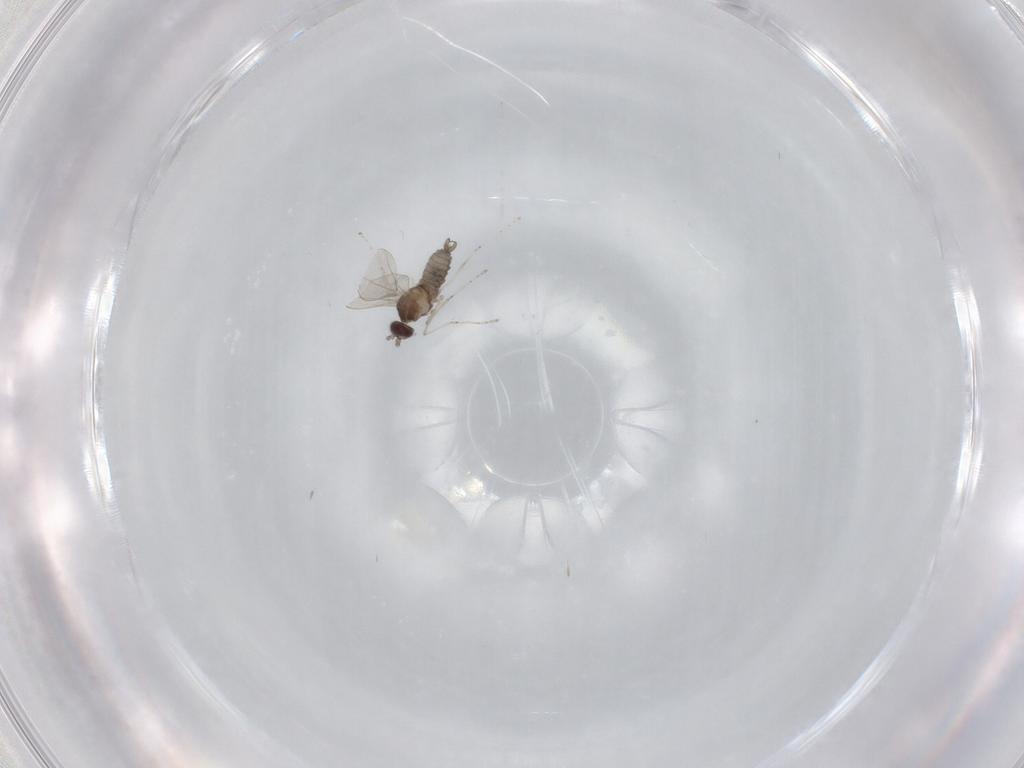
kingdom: Animalia
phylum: Arthropoda
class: Insecta
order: Diptera
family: Cecidomyiidae
